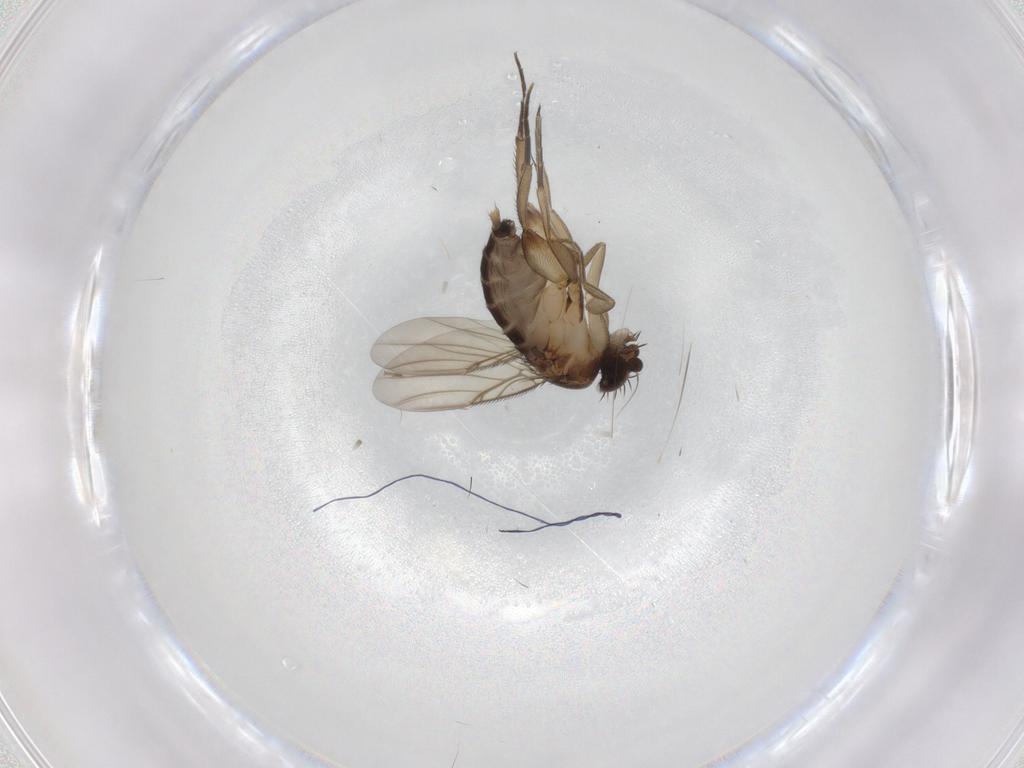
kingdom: Animalia
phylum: Arthropoda
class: Insecta
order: Diptera
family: Phoridae
